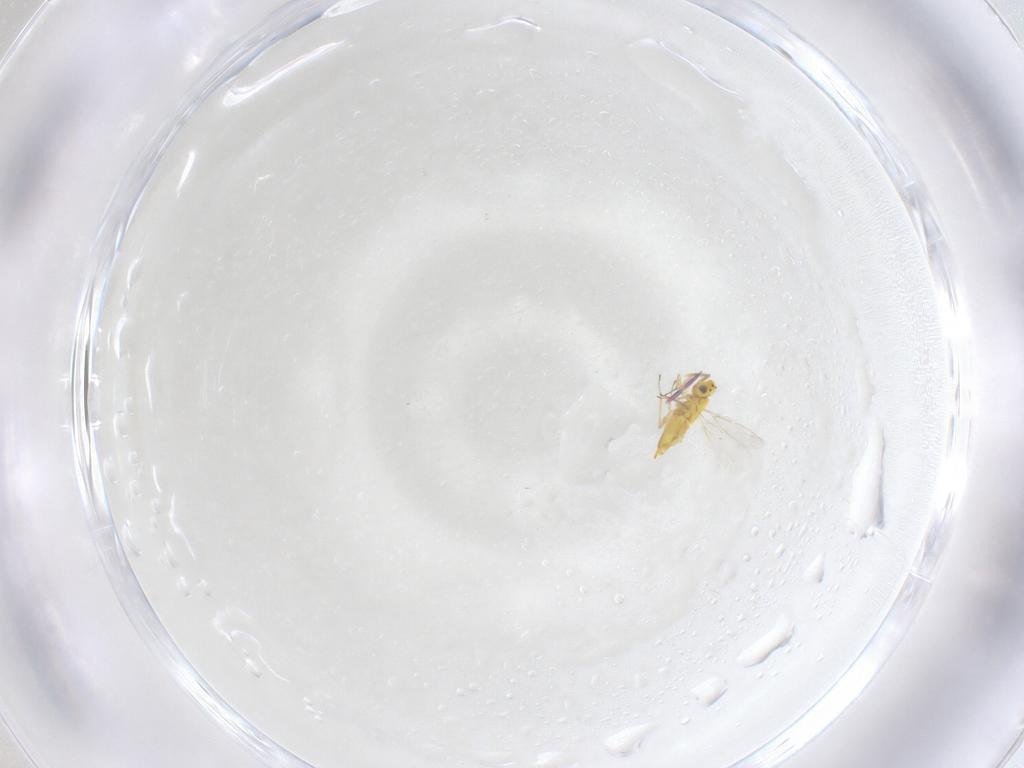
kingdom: Animalia
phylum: Arthropoda
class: Insecta
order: Hymenoptera
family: Aphelinidae
